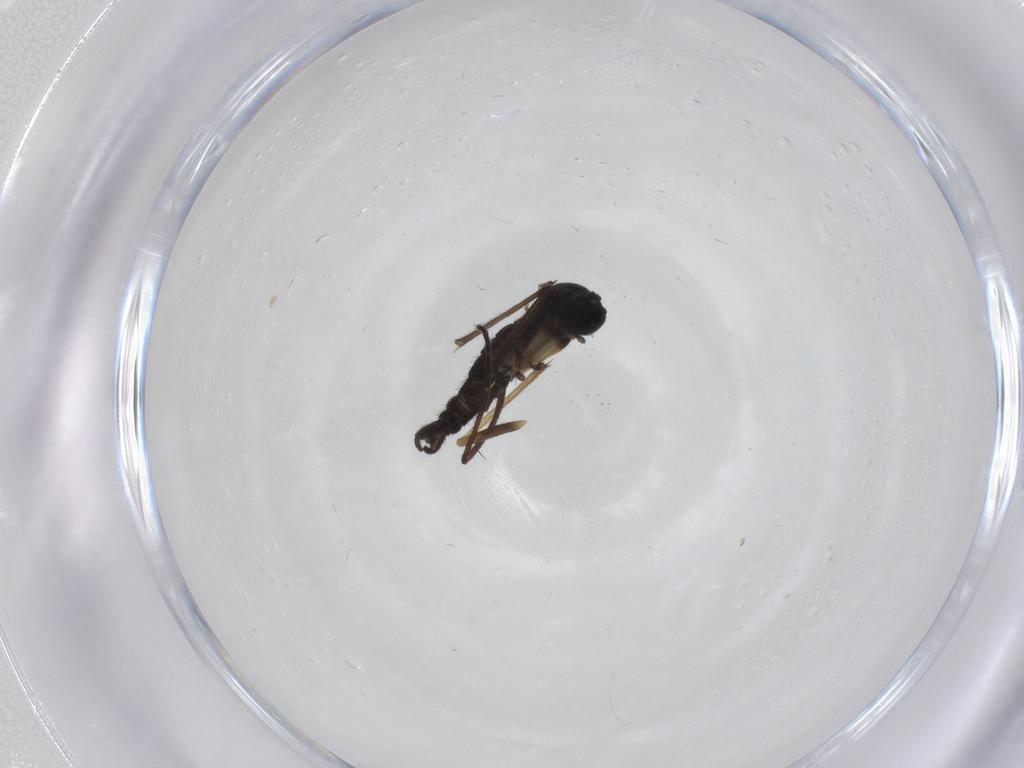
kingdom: Animalia
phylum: Arthropoda
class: Insecta
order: Diptera
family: Sciaridae
